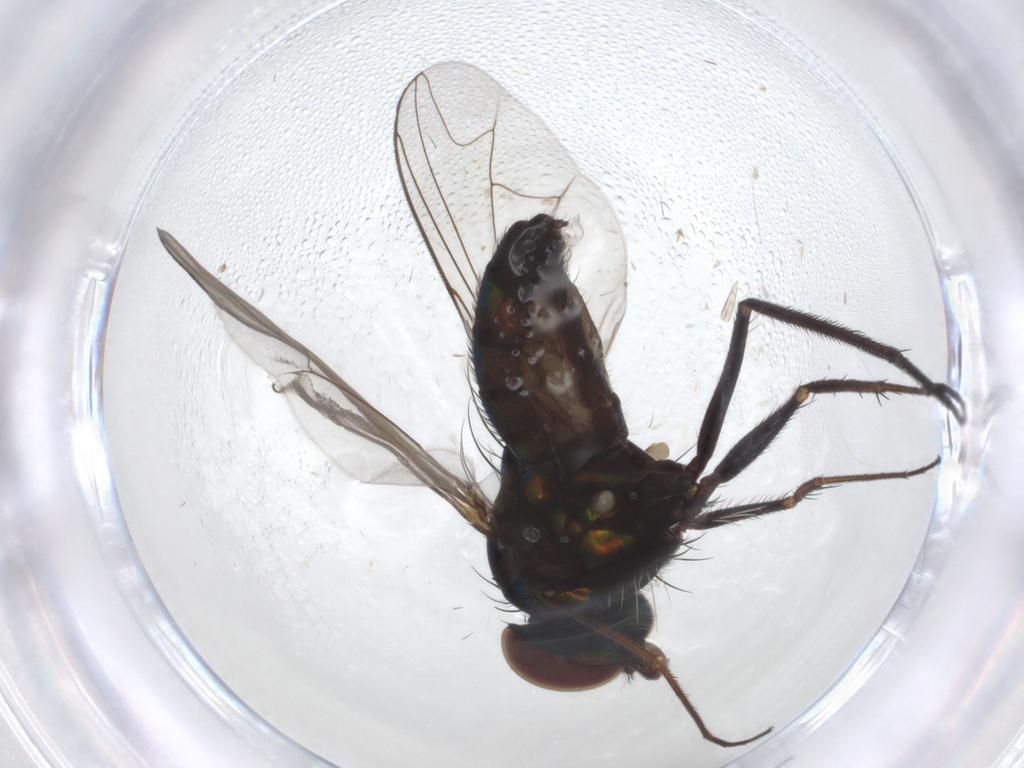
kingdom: Animalia
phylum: Arthropoda
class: Insecta
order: Diptera
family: Dolichopodidae
